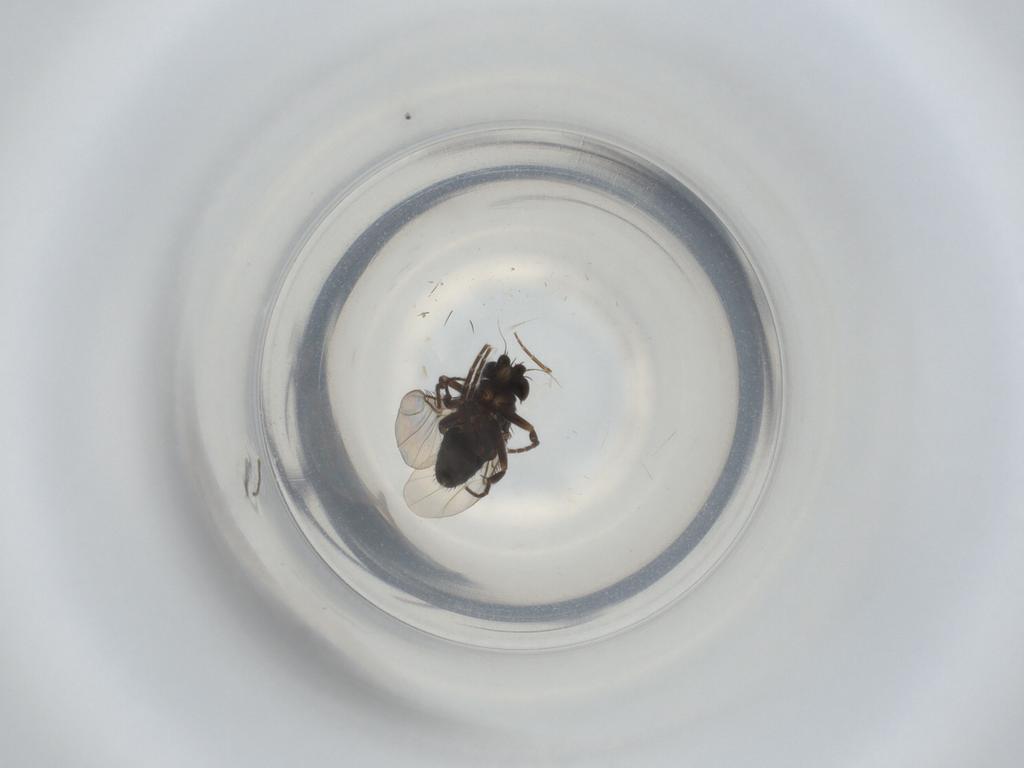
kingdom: Animalia
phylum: Arthropoda
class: Insecta
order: Diptera
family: Phoridae
